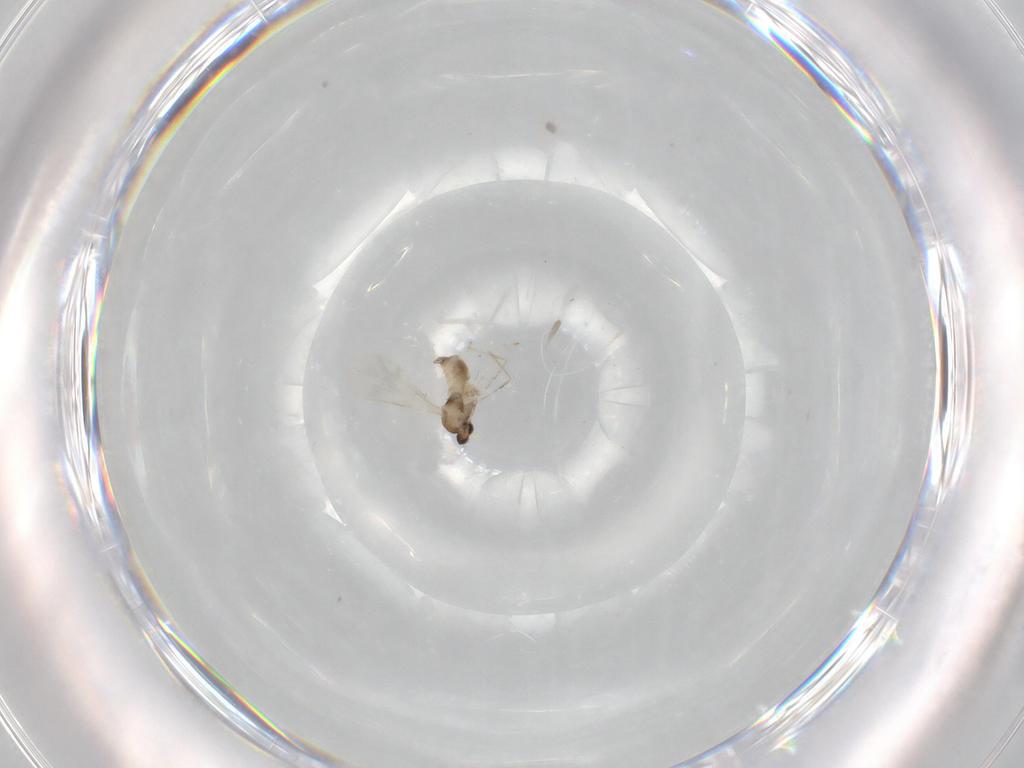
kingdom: Animalia
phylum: Arthropoda
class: Insecta
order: Diptera
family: Cecidomyiidae
